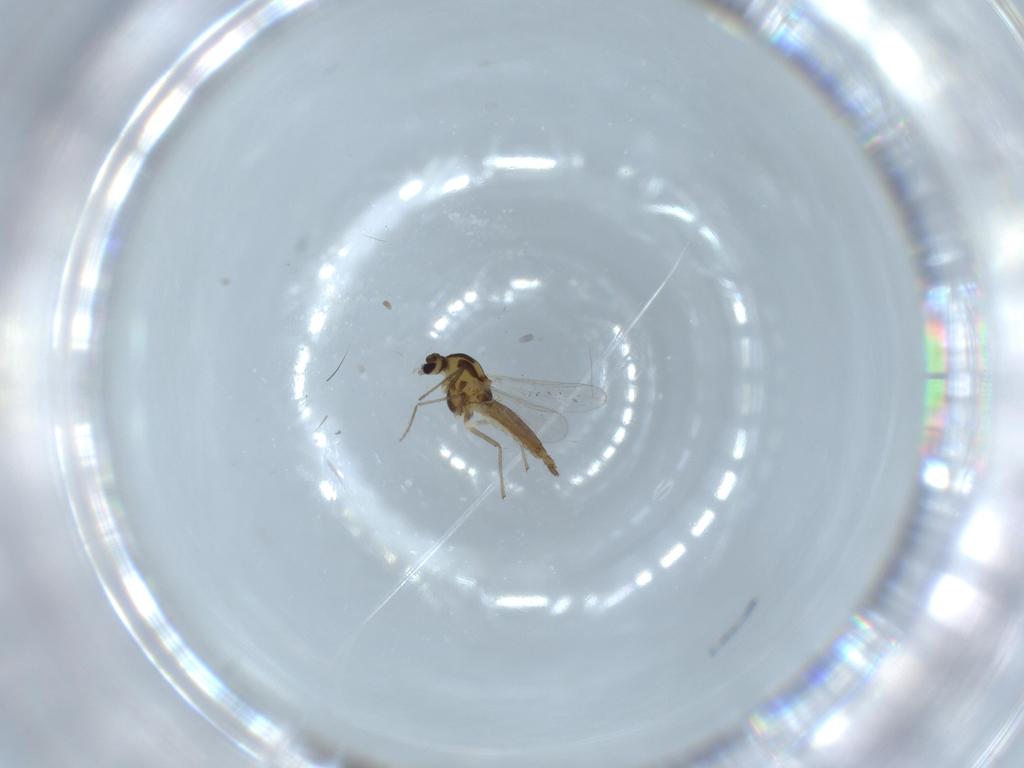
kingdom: Animalia
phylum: Arthropoda
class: Insecta
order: Diptera
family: Chironomidae
